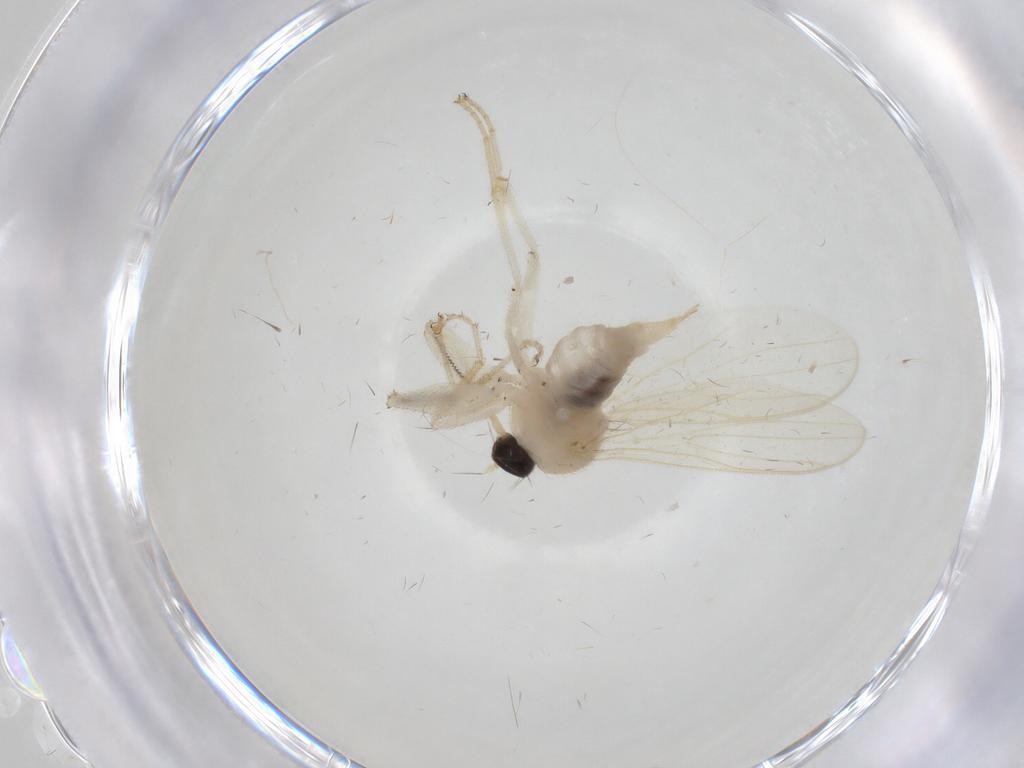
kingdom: Animalia
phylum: Arthropoda
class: Insecta
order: Diptera
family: Hybotidae
